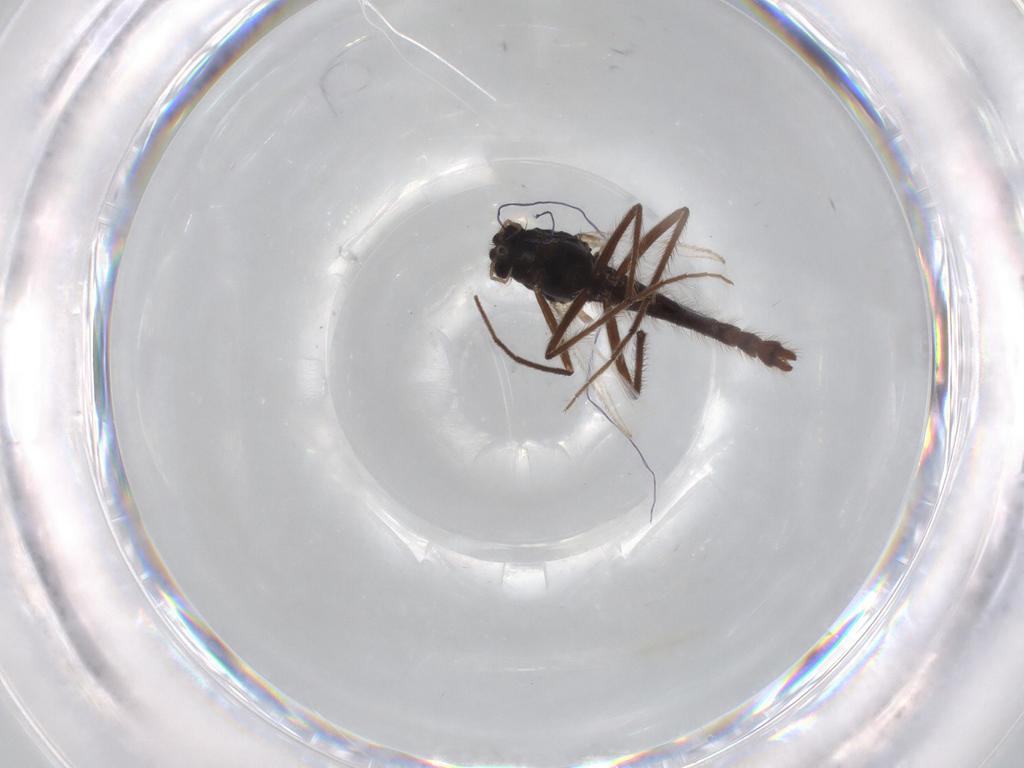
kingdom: Animalia
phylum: Arthropoda
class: Insecta
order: Diptera
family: Hybotidae
